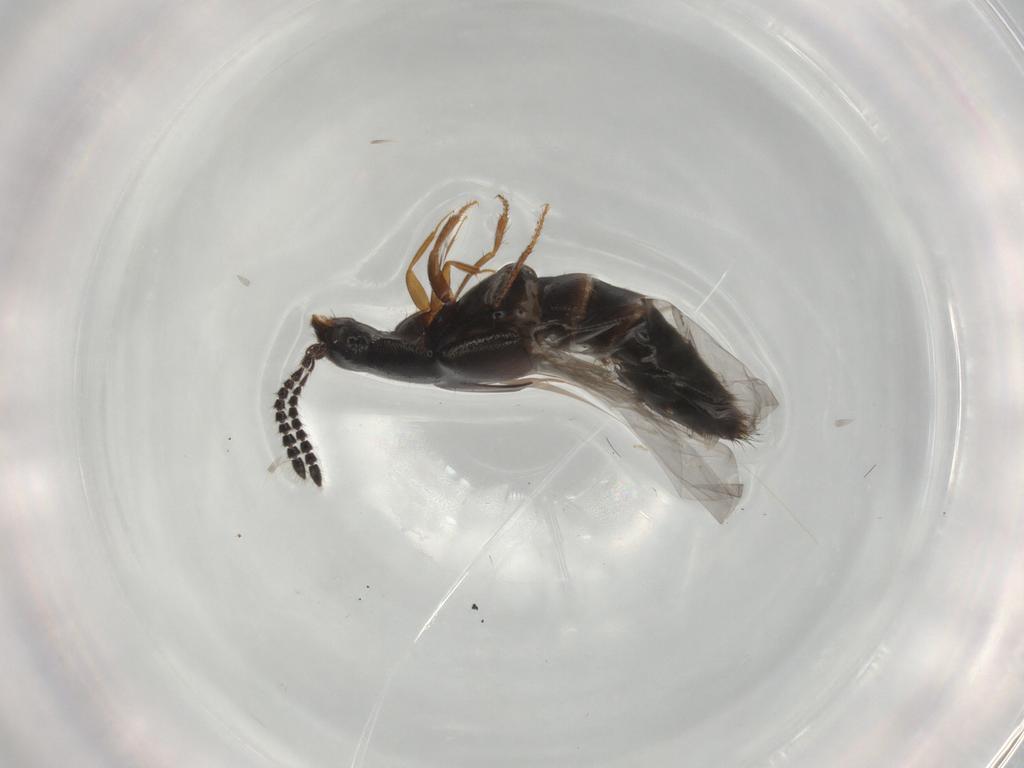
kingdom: Animalia
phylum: Arthropoda
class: Insecta
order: Coleoptera
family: Staphylinidae
